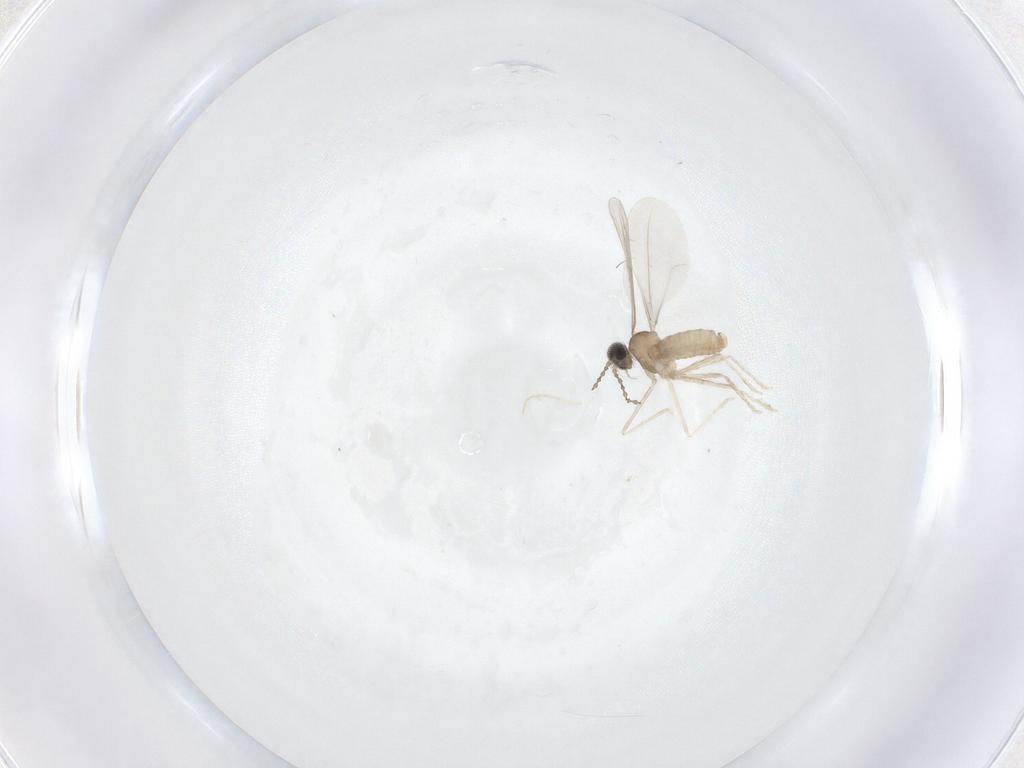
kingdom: Animalia
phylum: Arthropoda
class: Insecta
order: Diptera
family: Cecidomyiidae
